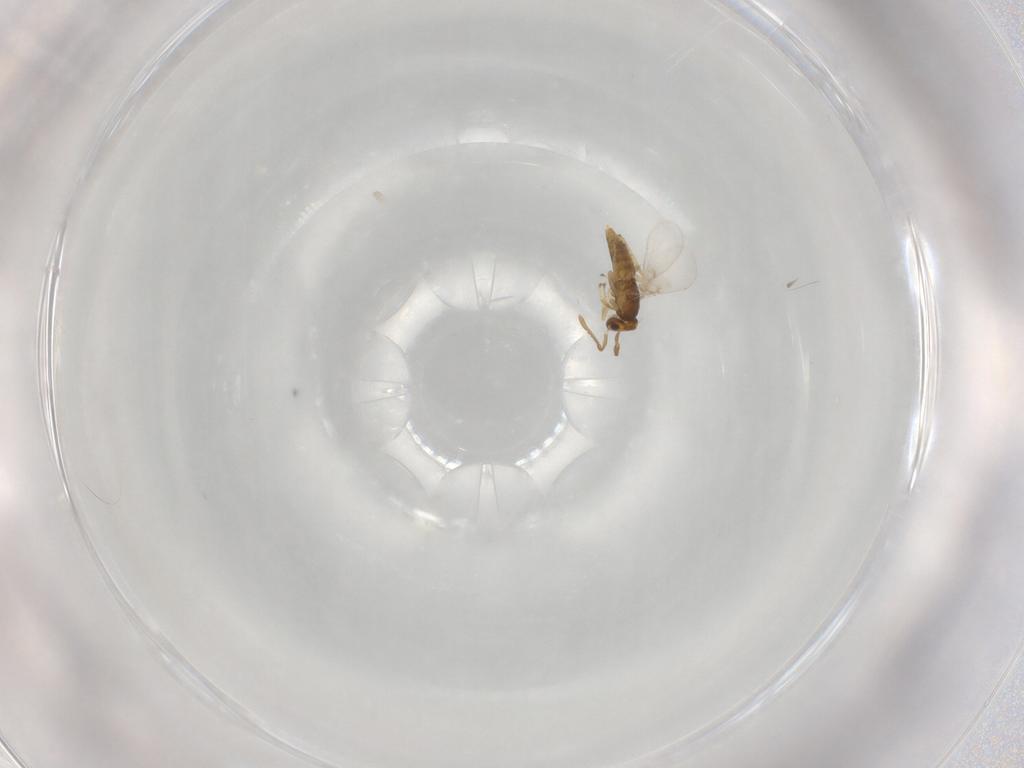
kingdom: Animalia
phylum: Arthropoda
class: Insecta
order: Hymenoptera
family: Encyrtidae
